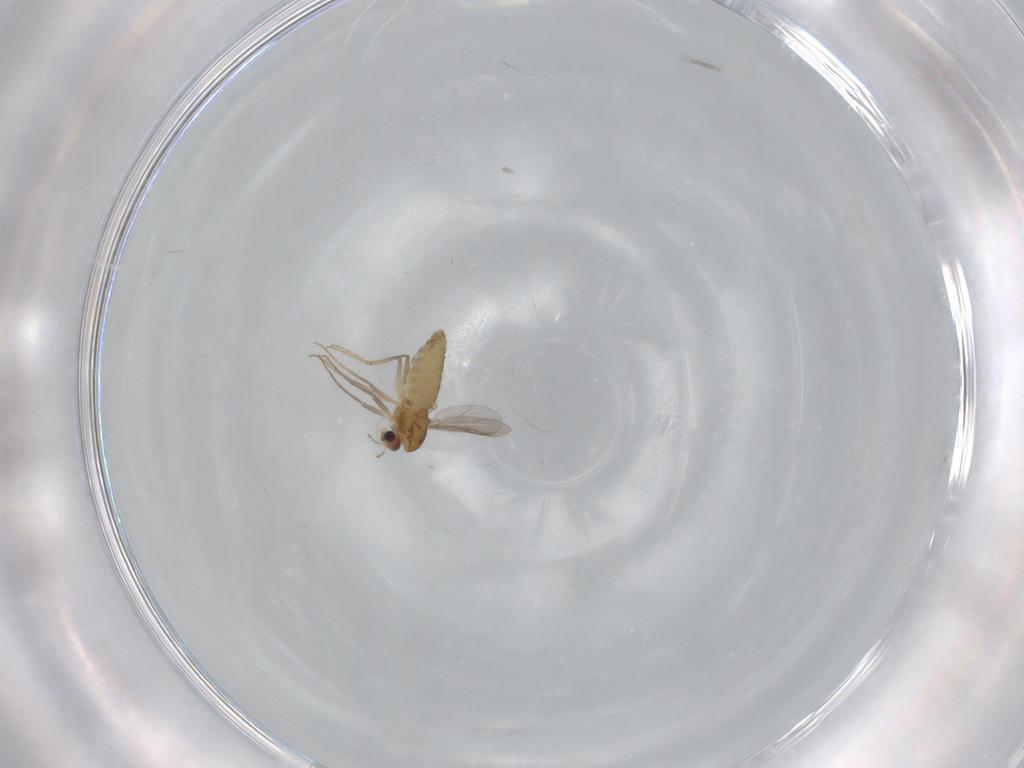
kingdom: Animalia
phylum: Arthropoda
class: Insecta
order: Diptera
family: Chironomidae
